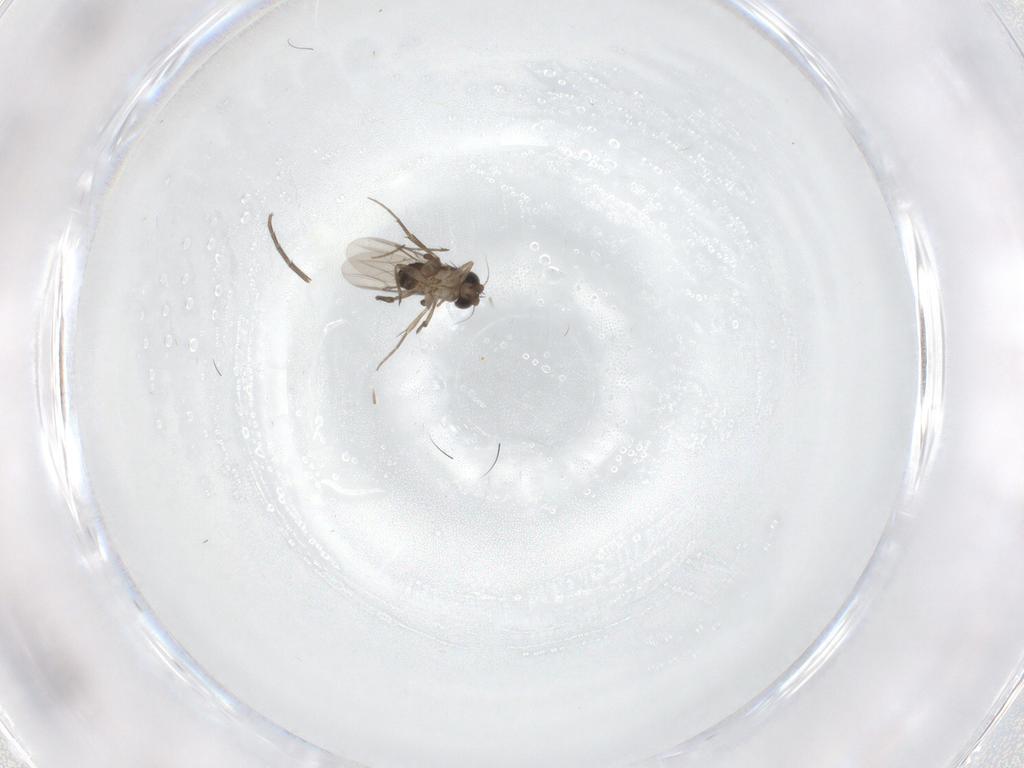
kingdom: Animalia
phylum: Arthropoda
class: Insecta
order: Diptera
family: Phoridae
